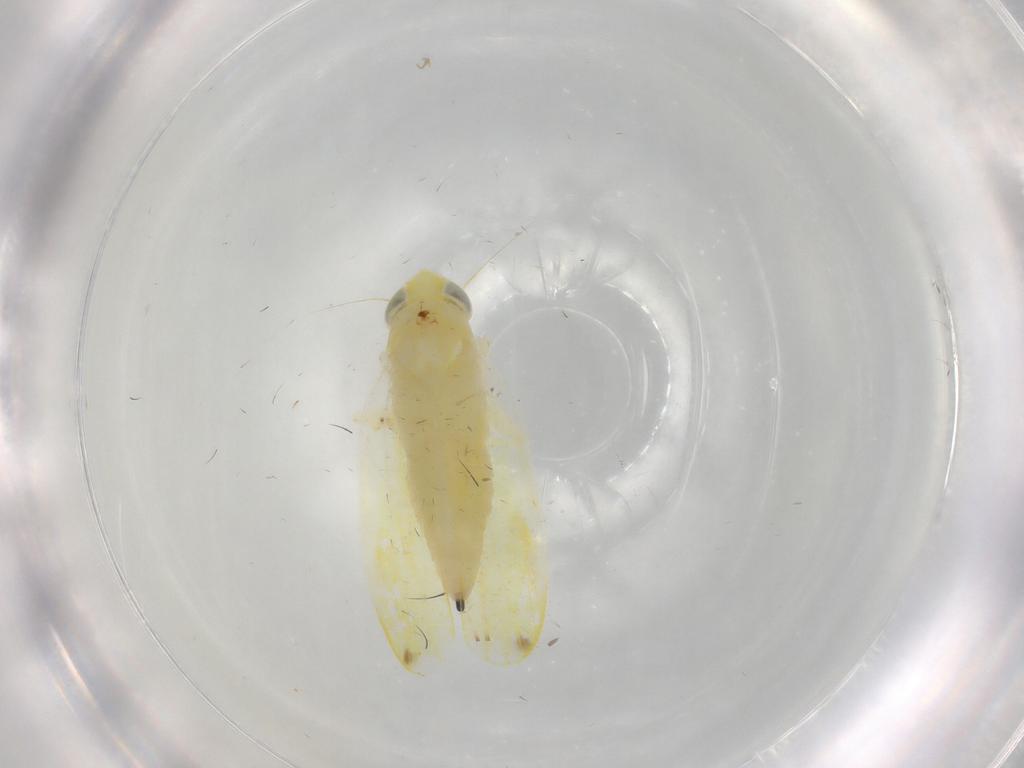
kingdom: Animalia
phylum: Arthropoda
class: Insecta
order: Hemiptera
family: Cicadellidae
